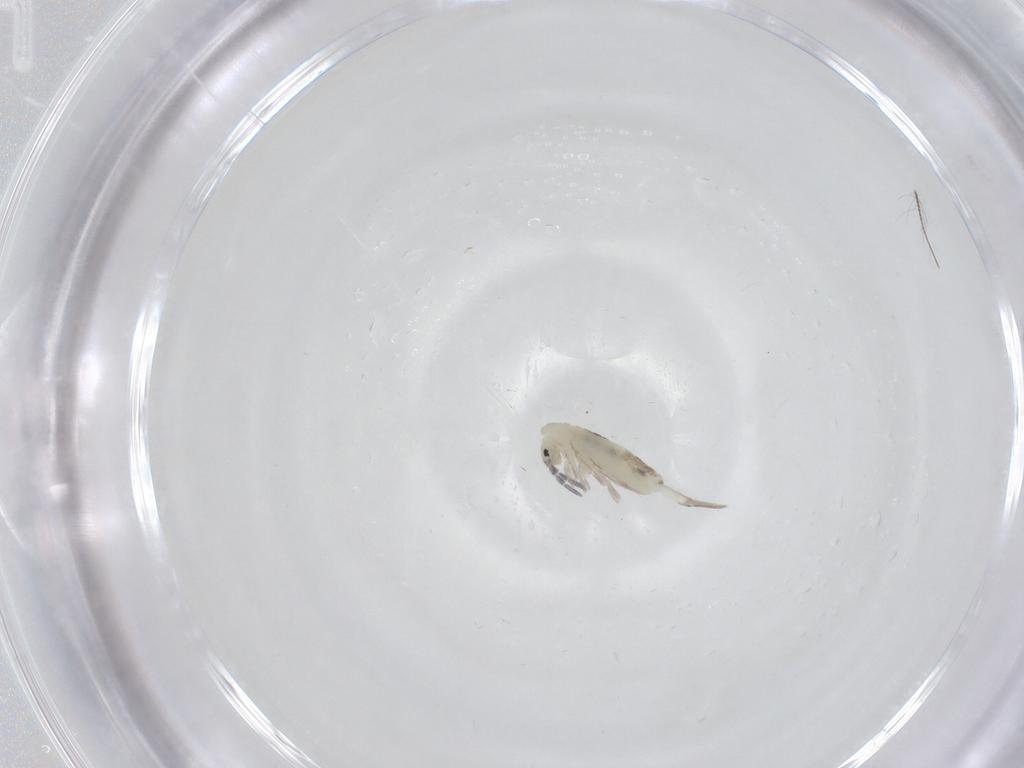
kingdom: Animalia
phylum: Arthropoda
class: Collembola
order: Entomobryomorpha
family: Entomobryidae
